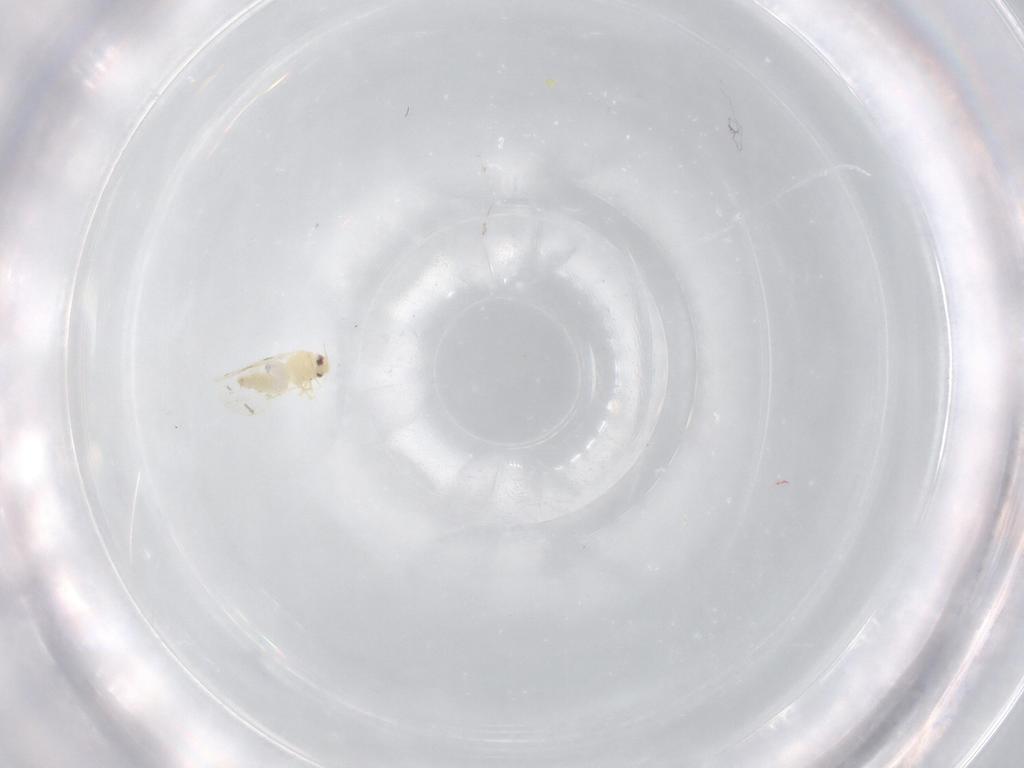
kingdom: Animalia
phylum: Arthropoda
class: Insecta
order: Hemiptera
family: Aleyrodidae
